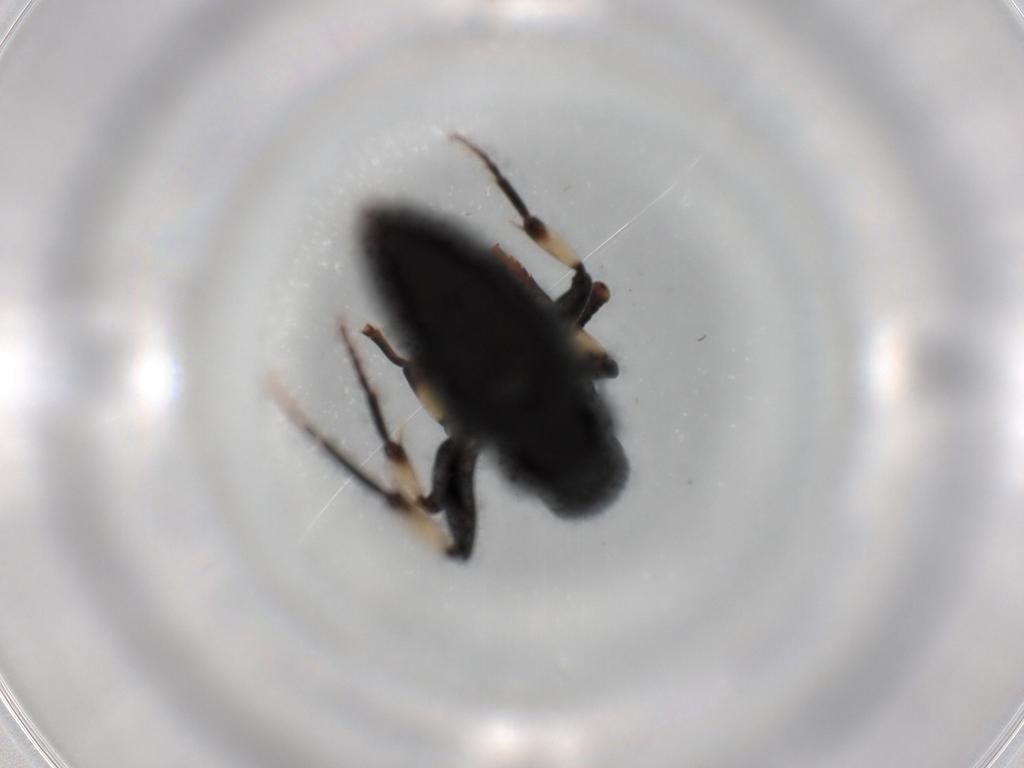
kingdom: Animalia
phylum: Arthropoda
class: Insecta
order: Hymenoptera
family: Formicidae
